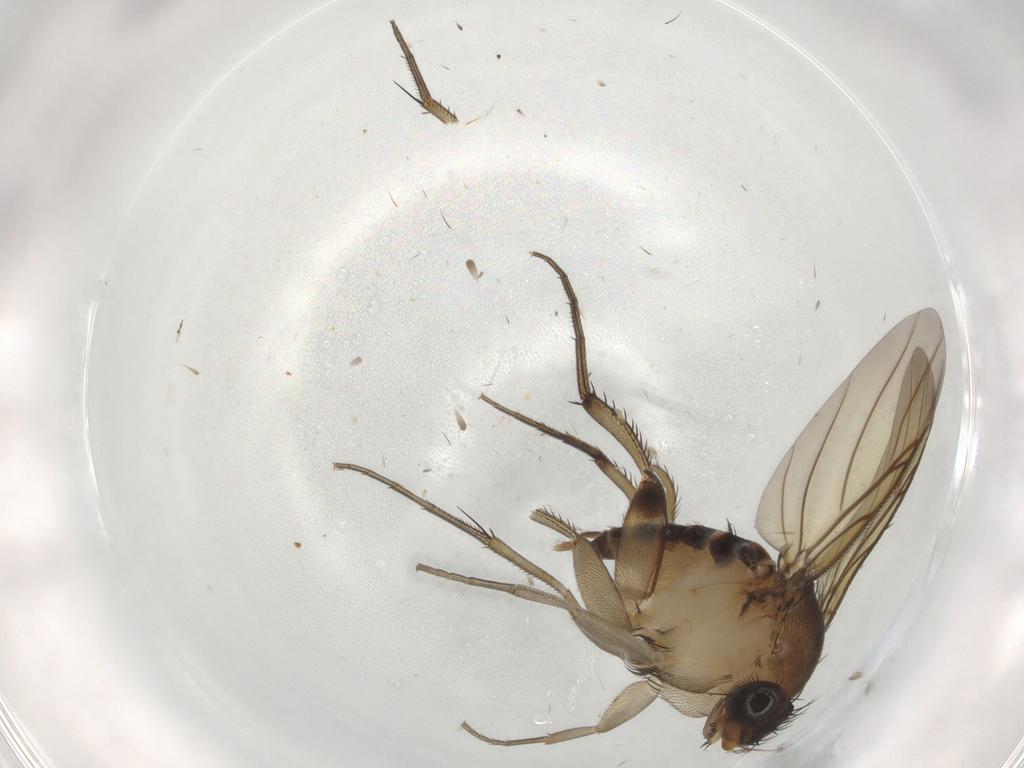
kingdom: Animalia
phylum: Arthropoda
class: Insecta
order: Diptera
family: Phoridae
